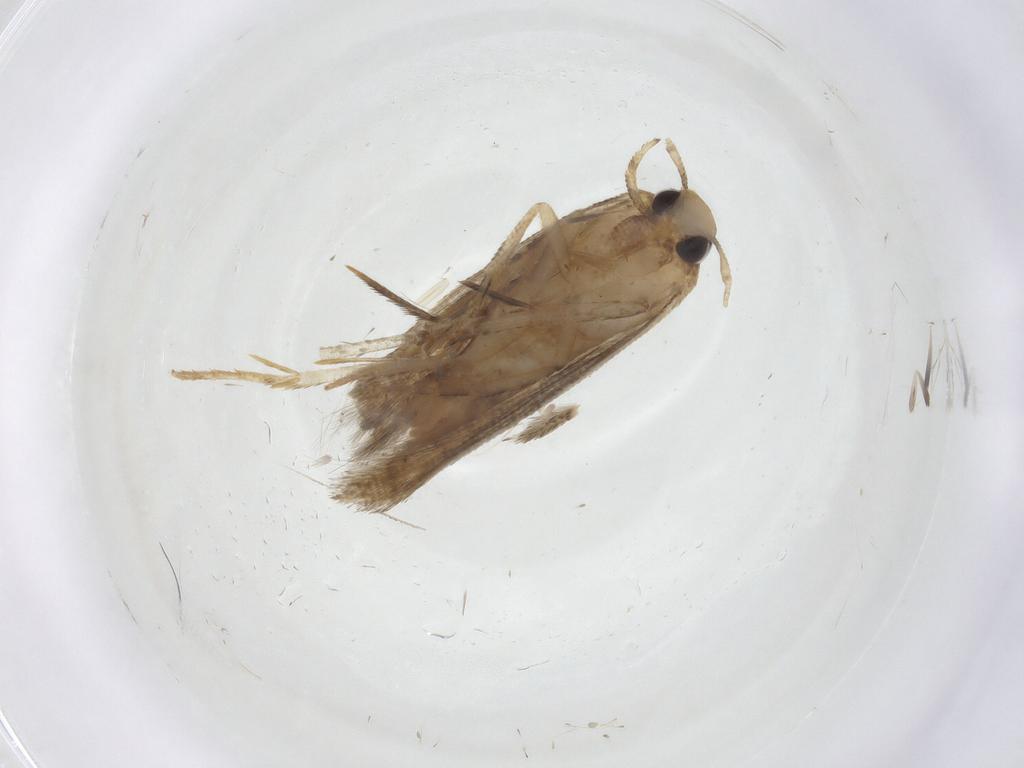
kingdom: Animalia
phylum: Arthropoda
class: Insecta
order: Lepidoptera
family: Gelechiidae
